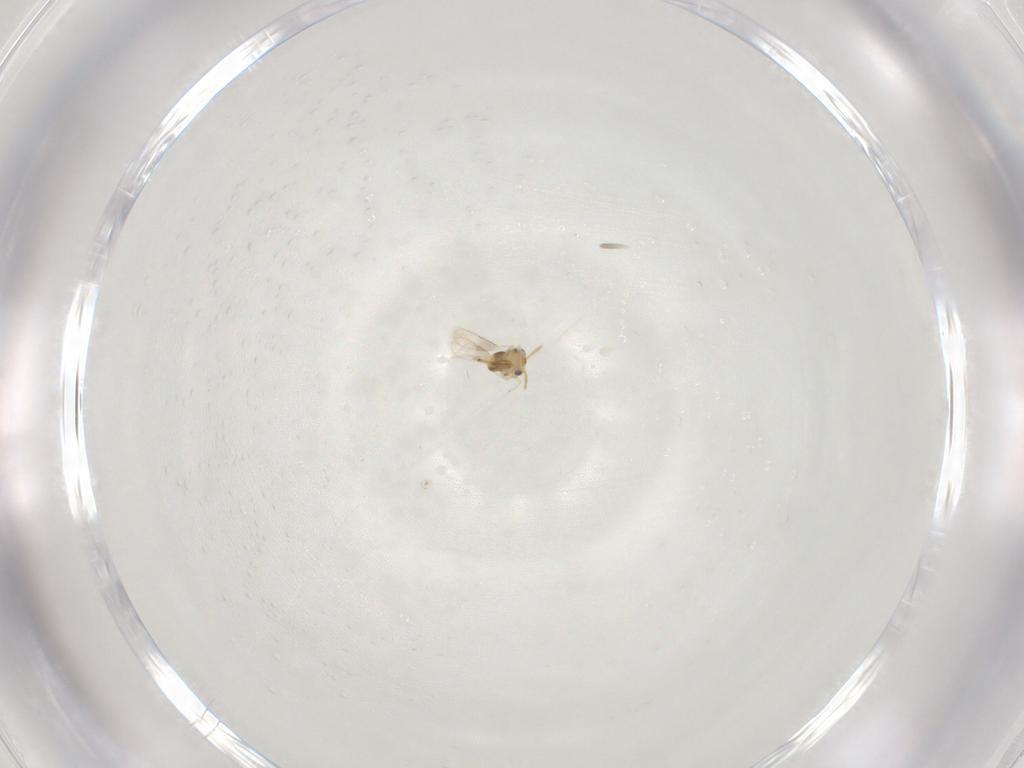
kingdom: Animalia
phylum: Arthropoda
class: Insecta
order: Hymenoptera
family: Aphelinidae
